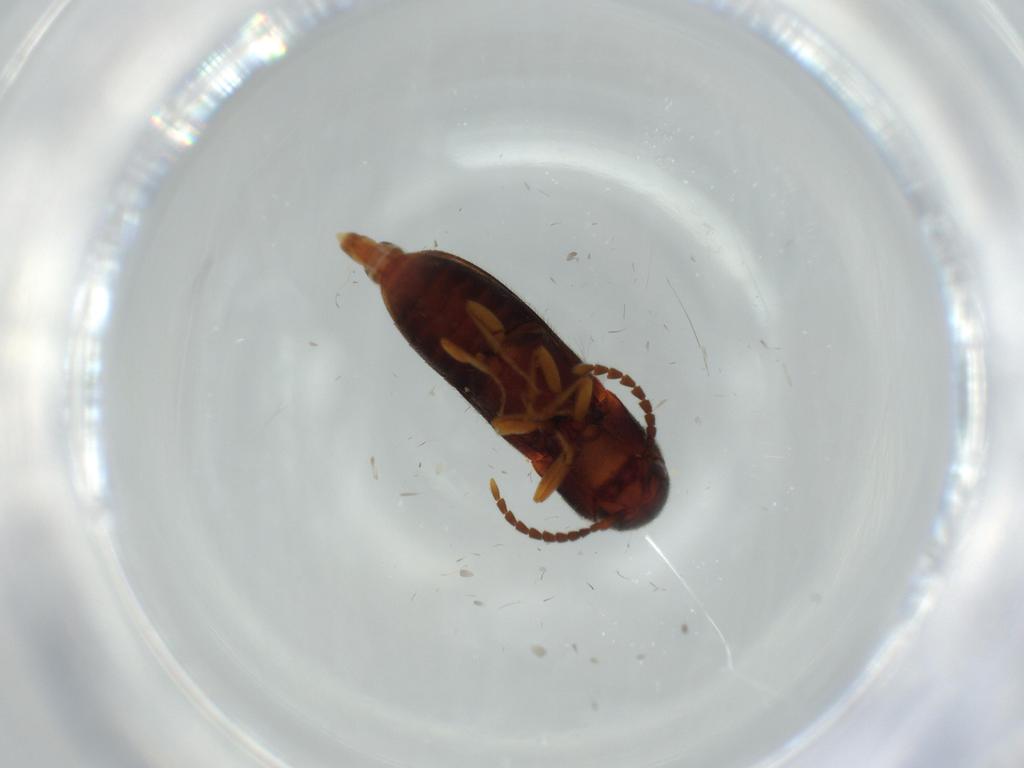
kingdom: Animalia
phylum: Arthropoda
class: Insecta
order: Coleoptera
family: Eucnemidae
